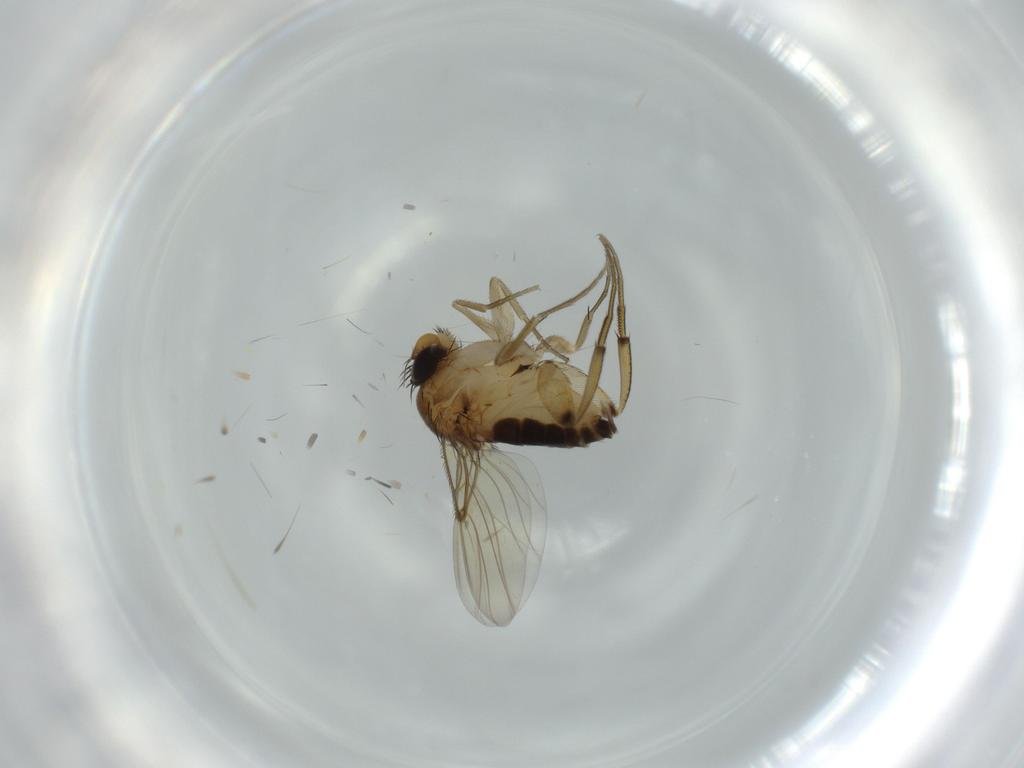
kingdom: Animalia
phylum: Arthropoda
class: Insecta
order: Diptera
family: Phoridae
